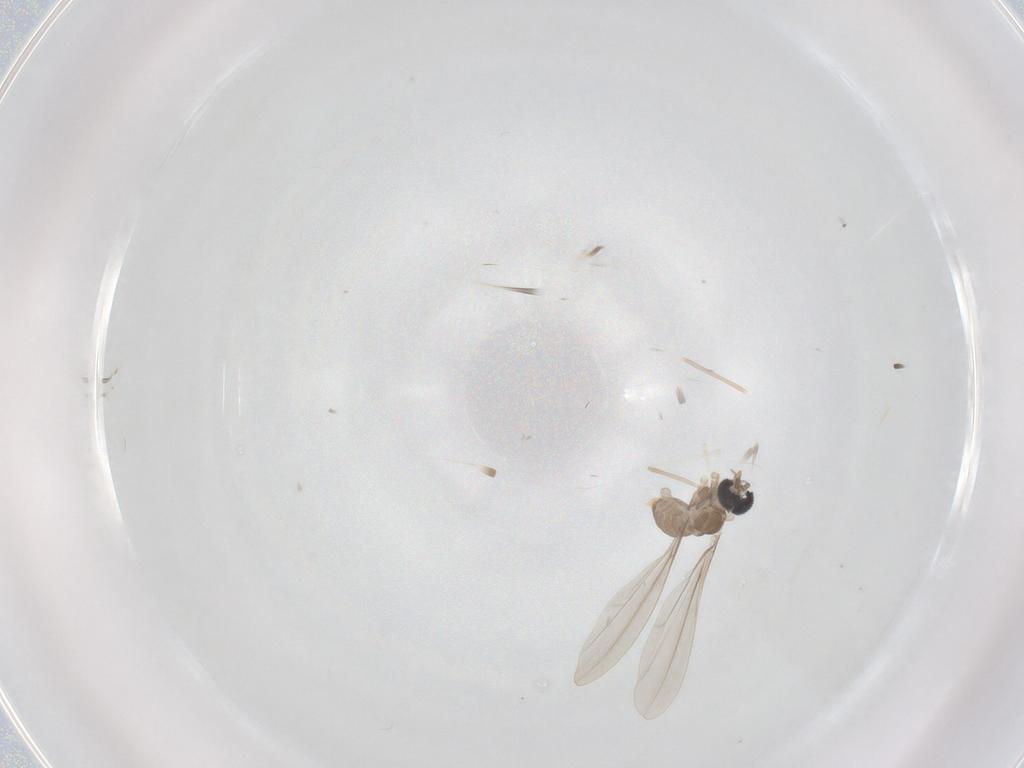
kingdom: Animalia
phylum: Arthropoda
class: Insecta
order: Diptera
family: Cecidomyiidae
